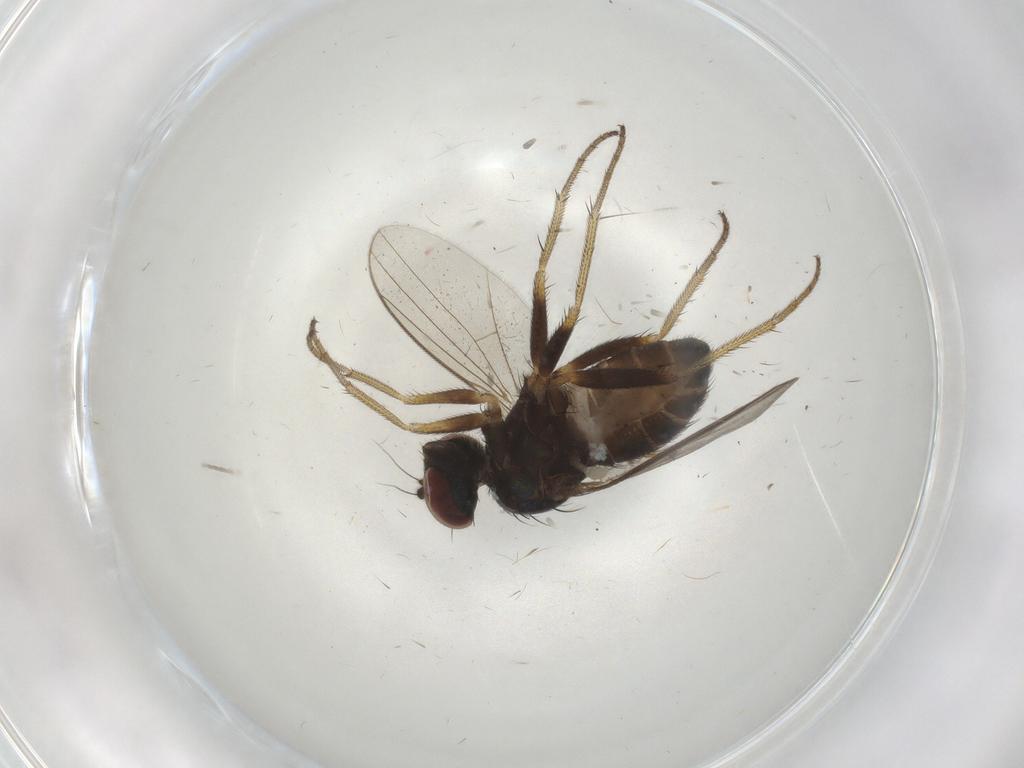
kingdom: Animalia
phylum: Arthropoda
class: Insecta
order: Diptera
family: Dolichopodidae
